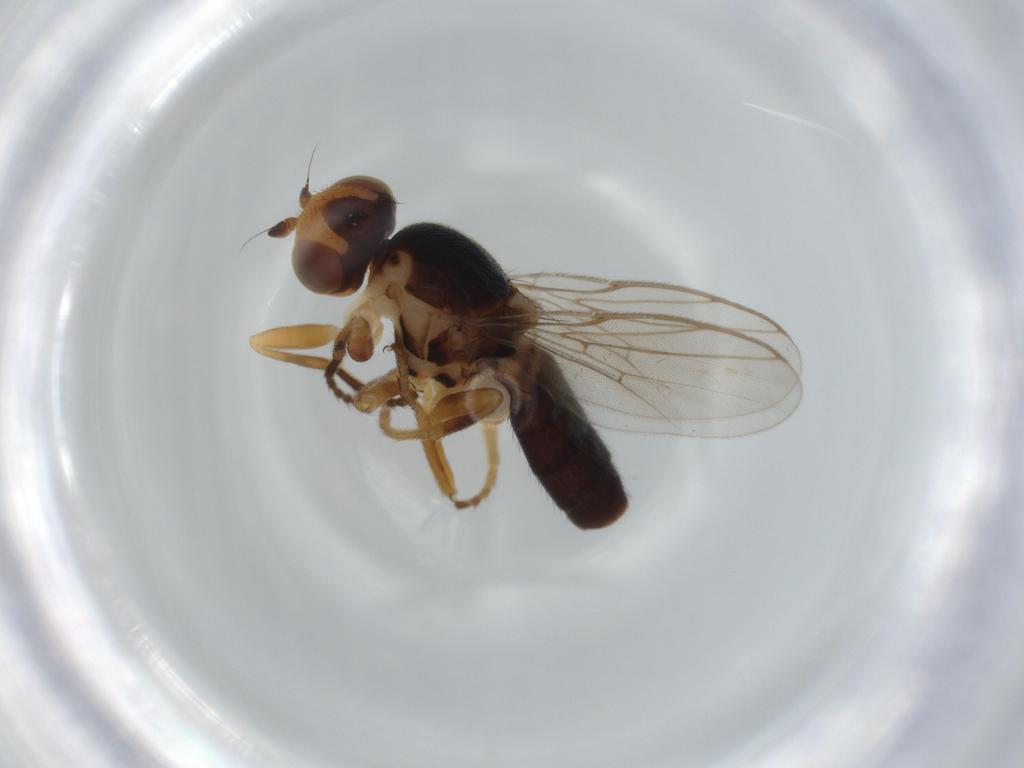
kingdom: Animalia
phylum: Arthropoda
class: Insecta
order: Diptera
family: Chloropidae
